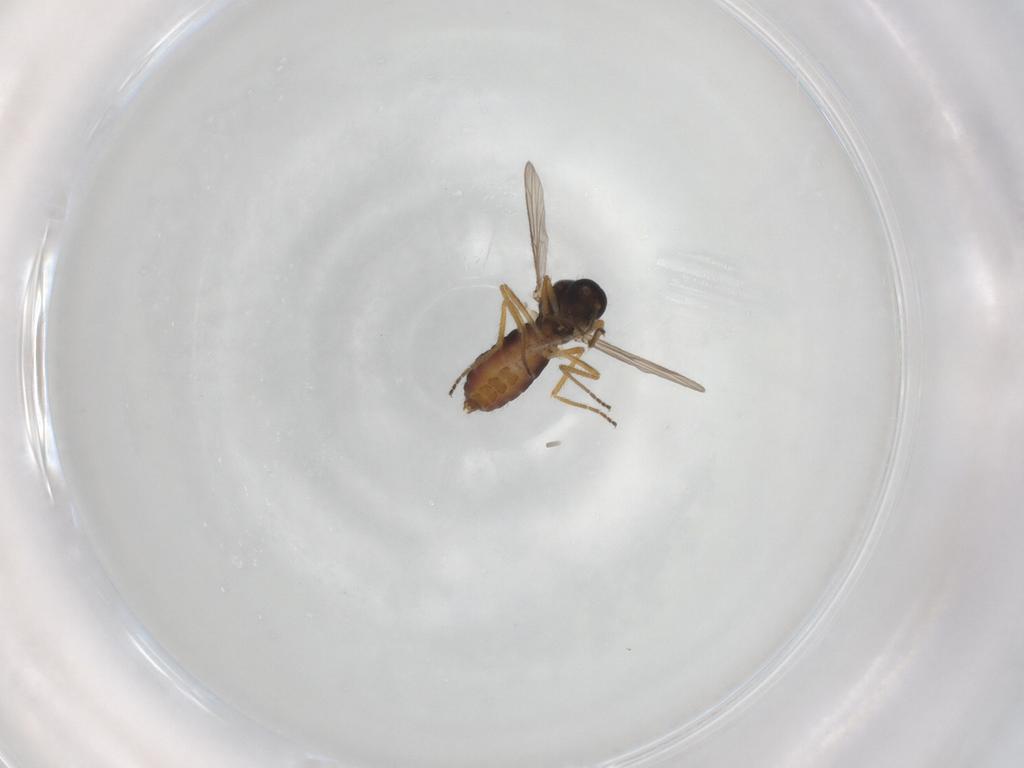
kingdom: Animalia
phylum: Arthropoda
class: Insecta
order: Diptera
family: Ceratopogonidae
